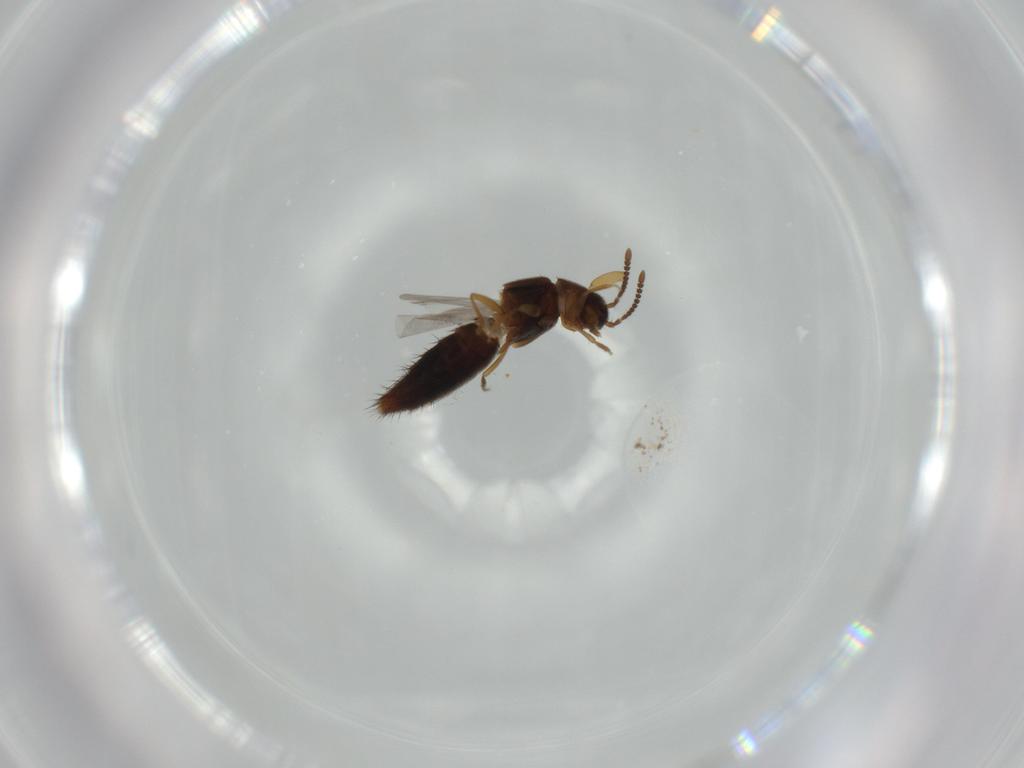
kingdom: Animalia
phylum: Arthropoda
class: Insecta
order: Coleoptera
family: Staphylinidae
